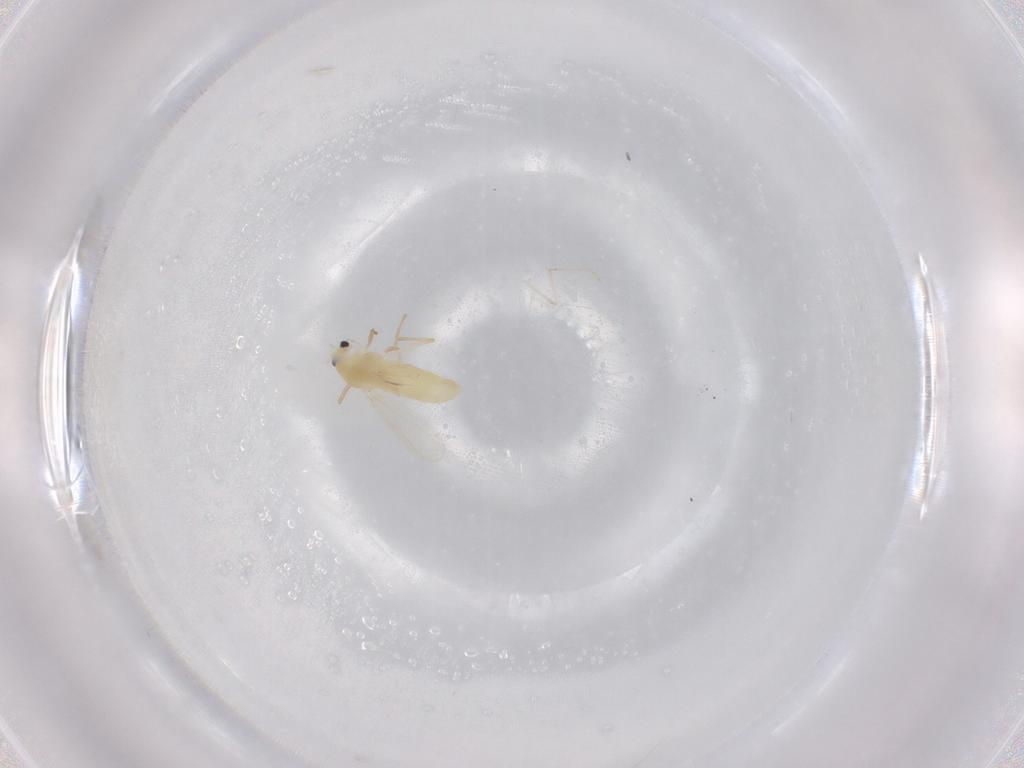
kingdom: Animalia
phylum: Arthropoda
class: Insecta
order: Diptera
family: Chironomidae
